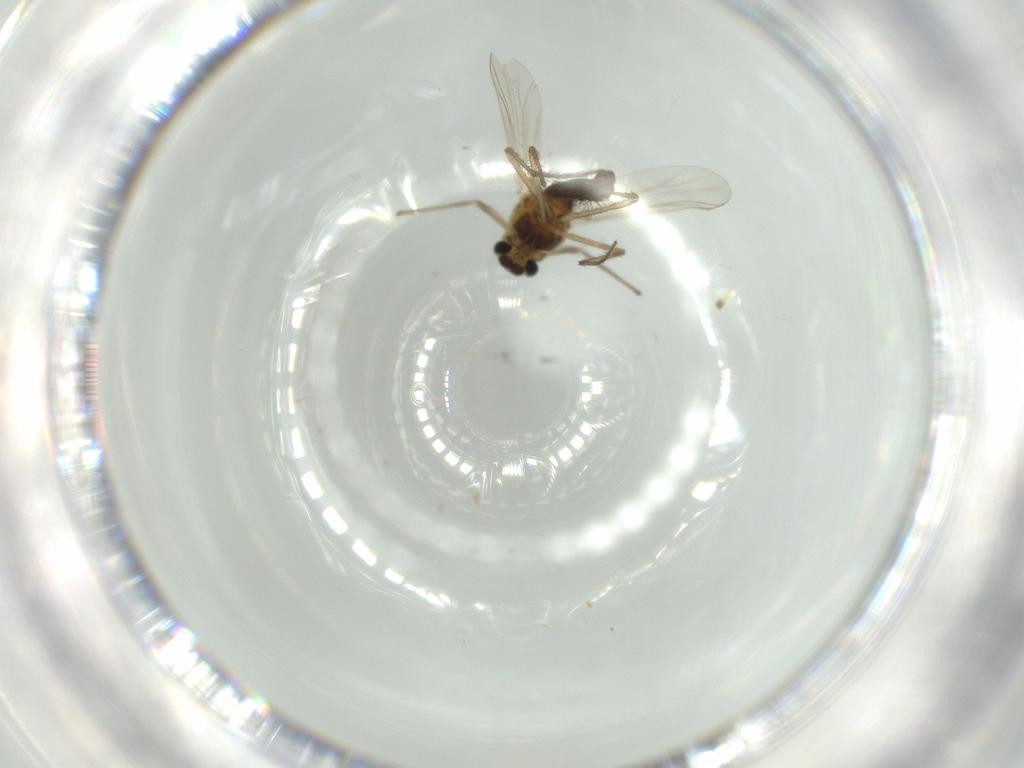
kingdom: Animalia
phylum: Arthropoda
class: Insecta
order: Diptera
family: Chironomidae
